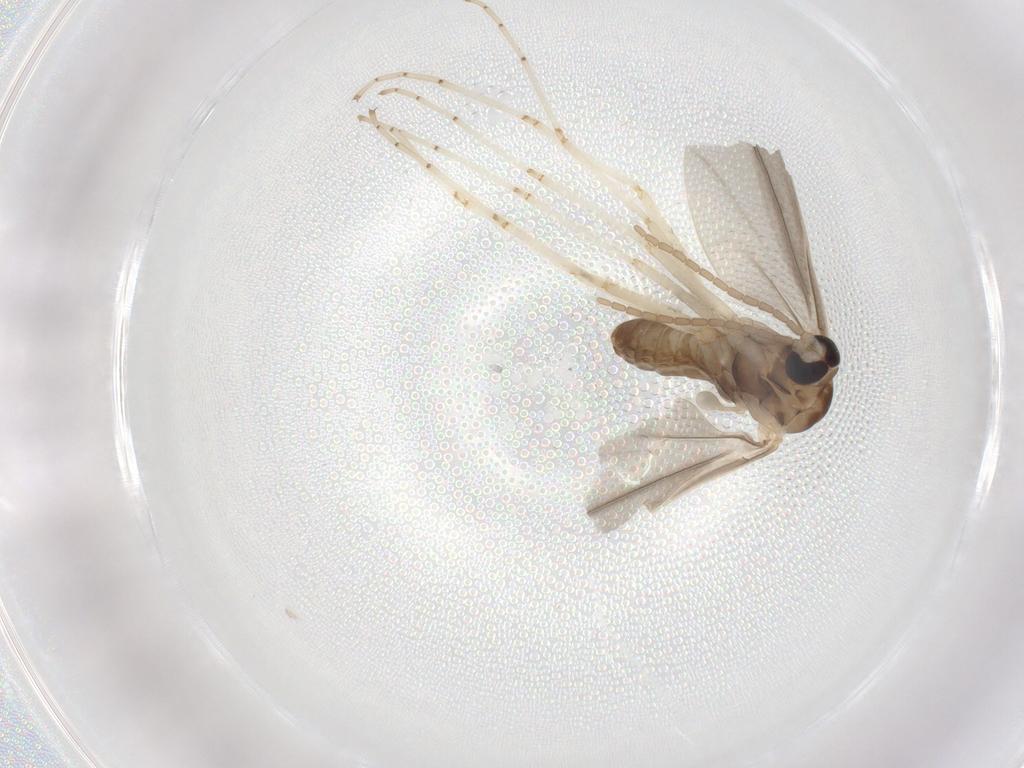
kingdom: Animalia
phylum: Arthropoda
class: Insecta
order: Diptera
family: Cecidomyiidae
